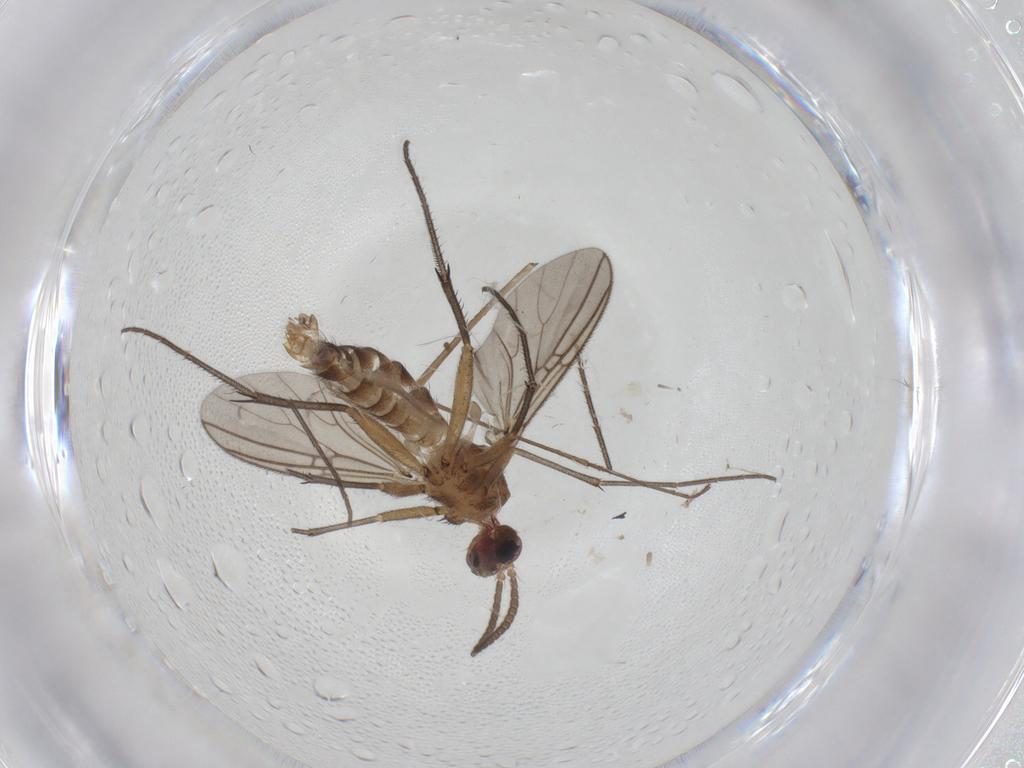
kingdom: Animalia
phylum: Arthropoda
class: Insecta
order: Diptera
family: Mycetophilidae
